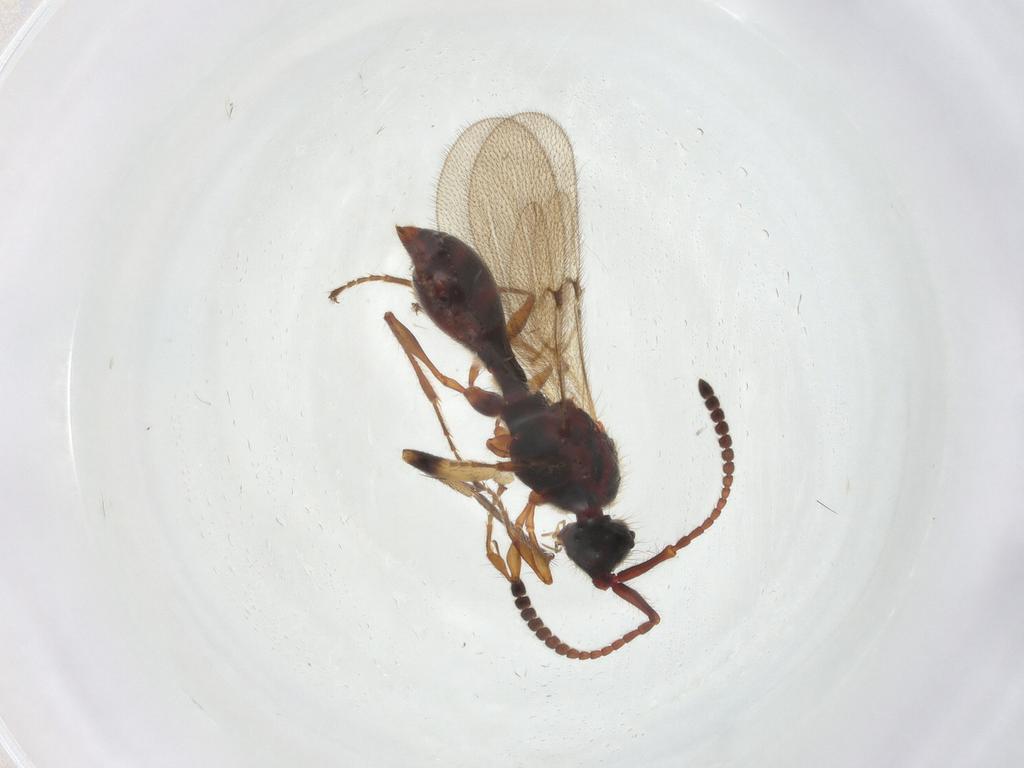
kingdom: Animalia
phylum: Arthropoda
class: Insecta
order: Hymenoptera
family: Diapriidae
